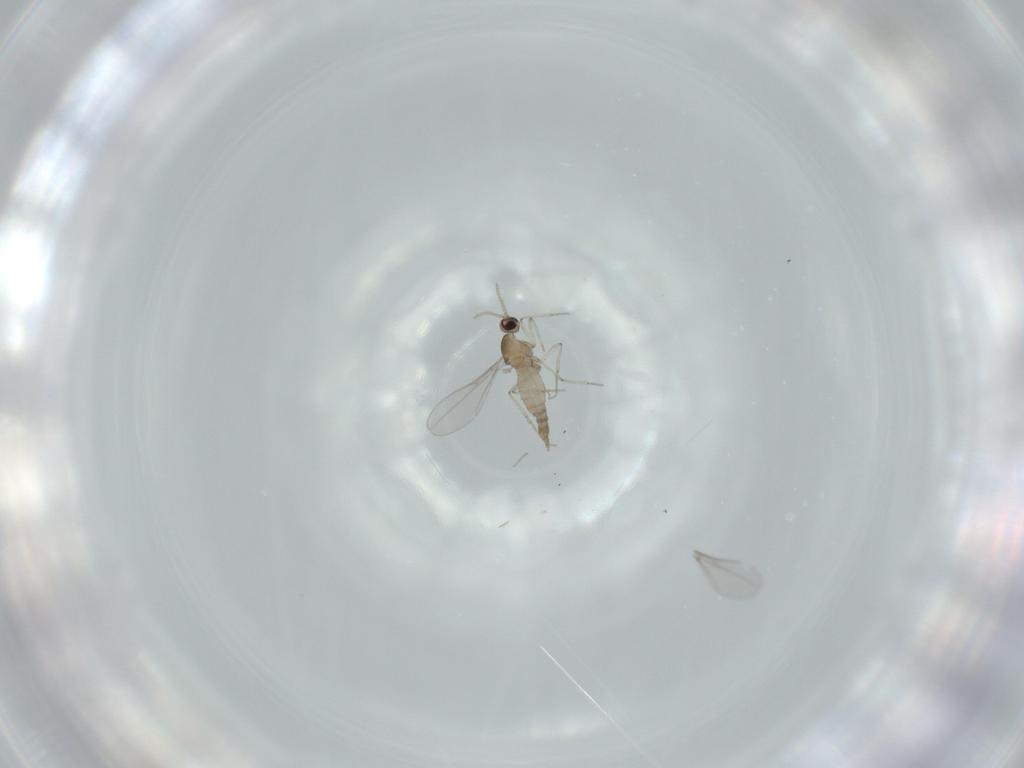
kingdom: Animalia
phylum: Arthropoda
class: Insecta
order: Diptera
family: Cecidomyiidae
